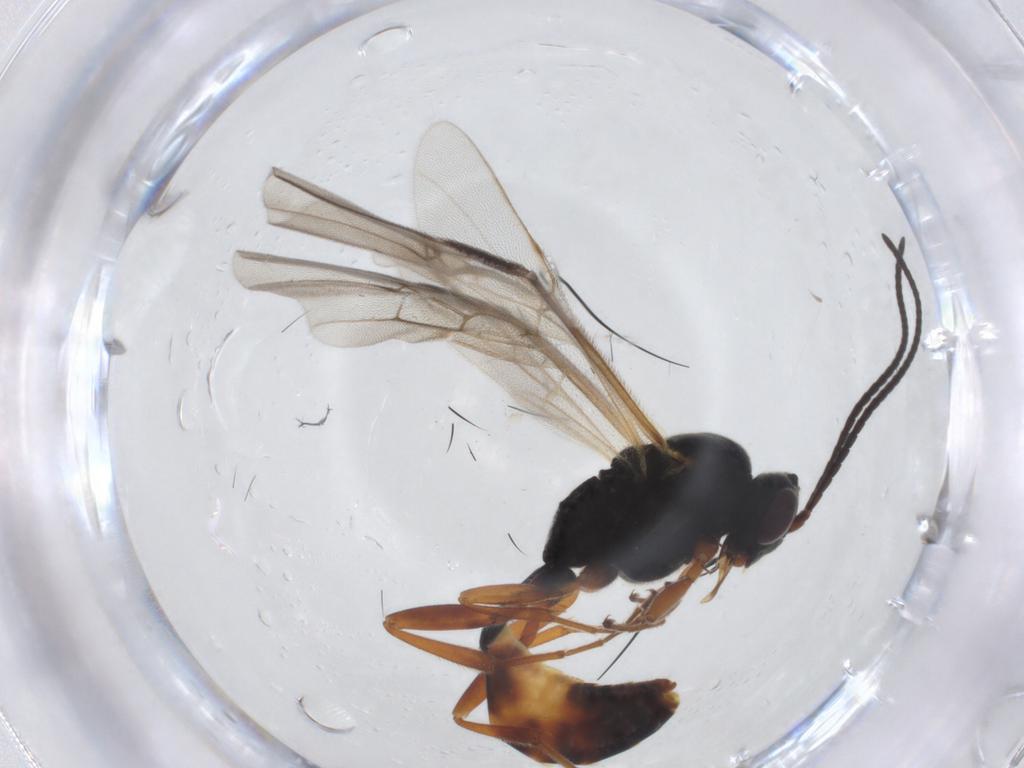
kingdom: Animalia
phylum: Arthropoda
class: Insecta
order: Hymenoptera
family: Ichneumonidae
